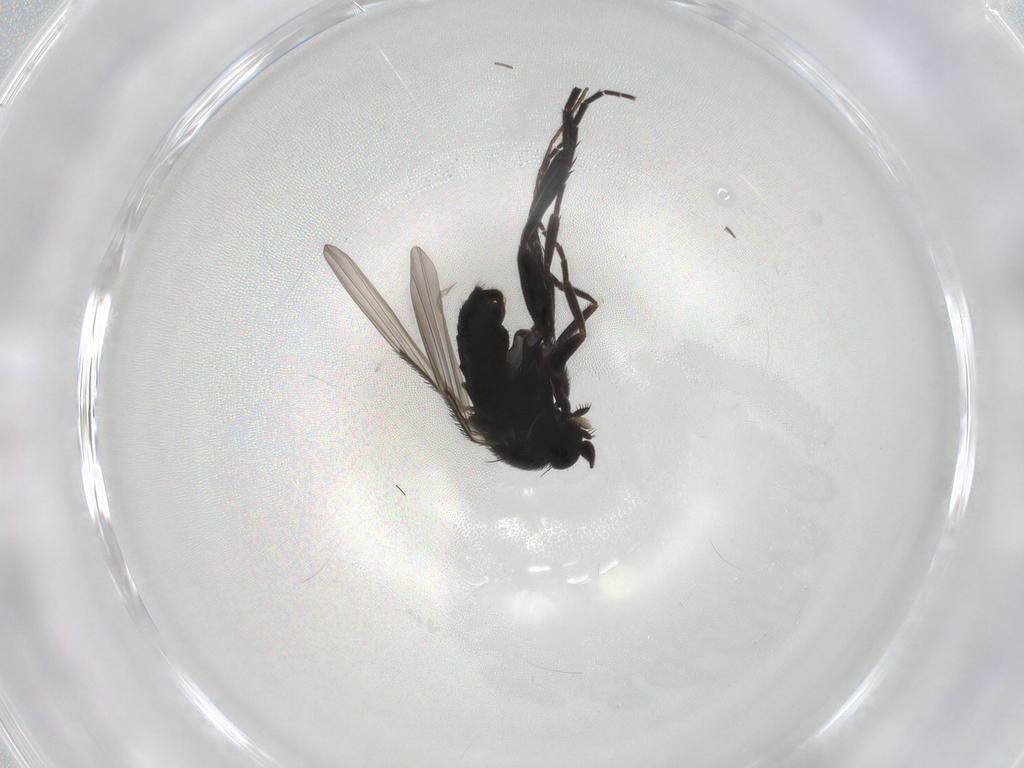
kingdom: Animalia
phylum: Arthropoda
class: Insecta
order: Diptera
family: Phoridae
